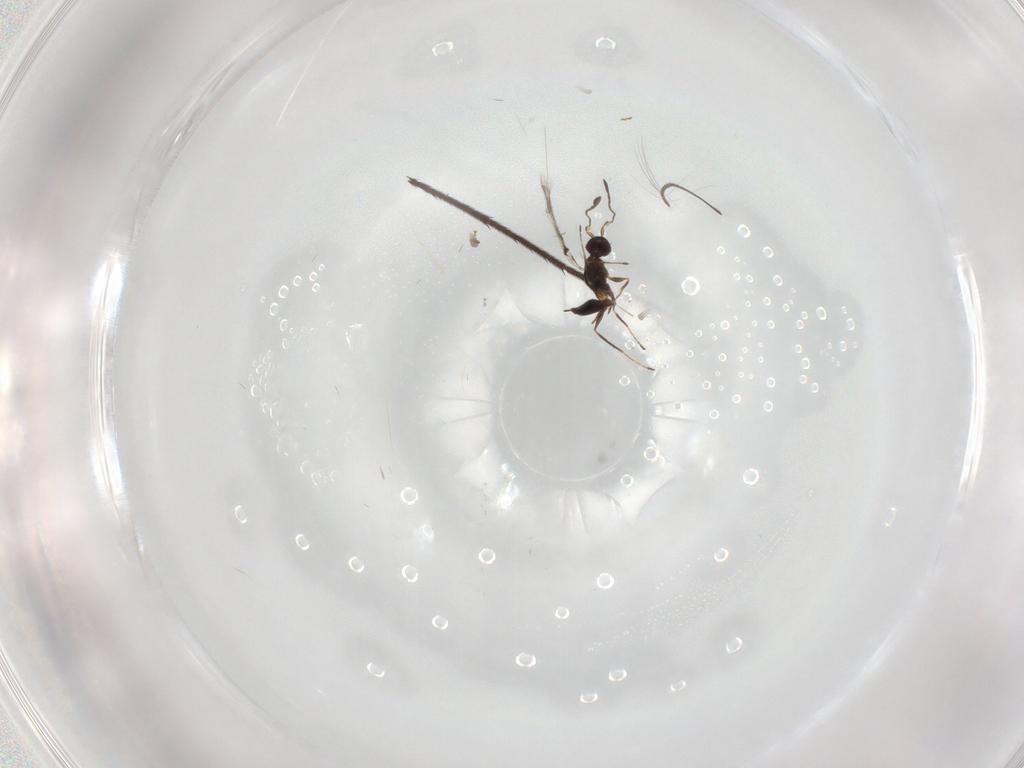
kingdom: Animalia
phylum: Arthropoda
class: Insecta
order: Hymenoptera
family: Mymaridae
